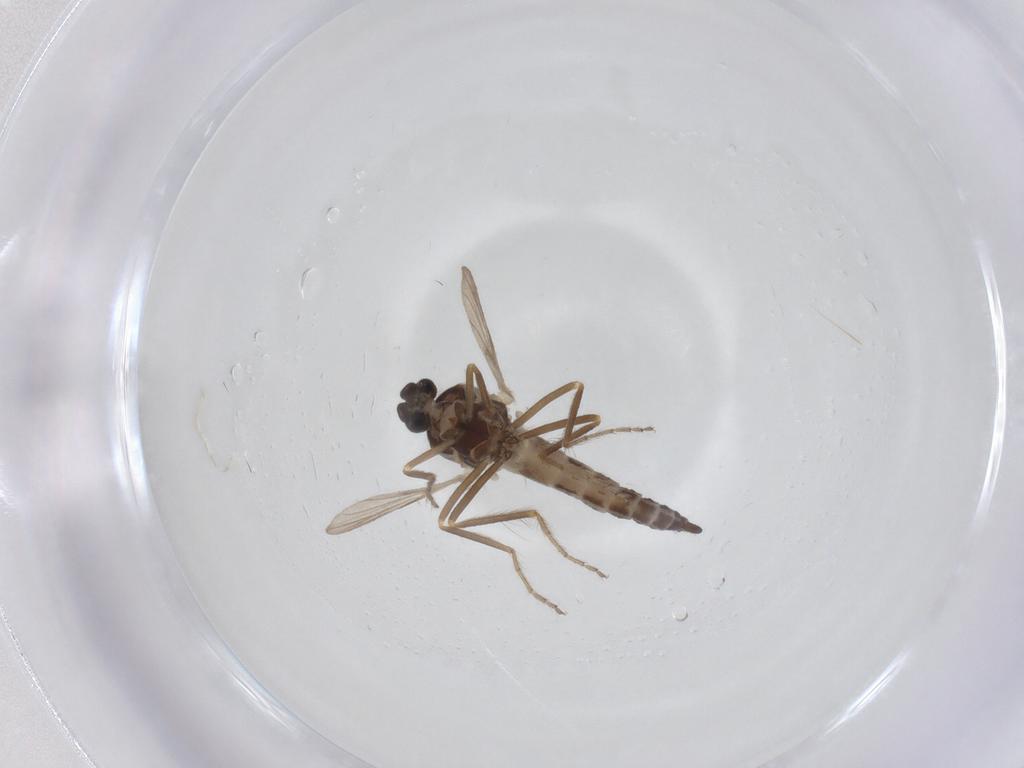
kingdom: Animalia
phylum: Arthropoda
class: Insecta
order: Diptera
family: Ceratopogonidae
